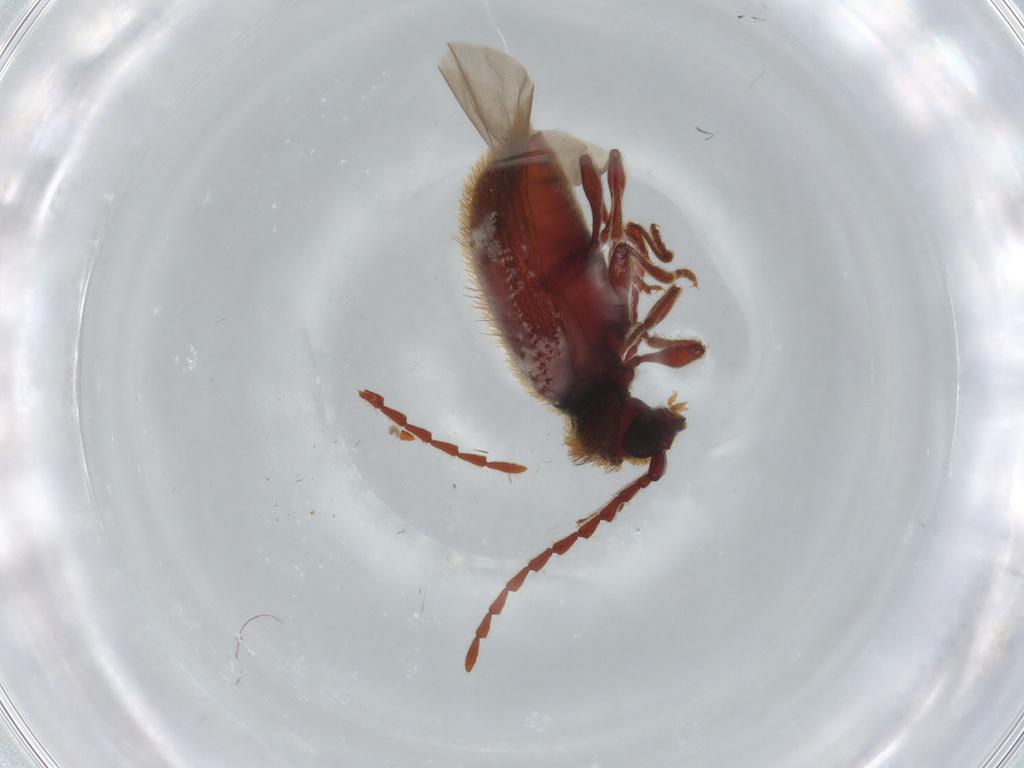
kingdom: Animalia
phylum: Arthropoda
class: Insecta
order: Coleoptera
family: Ptinidae
